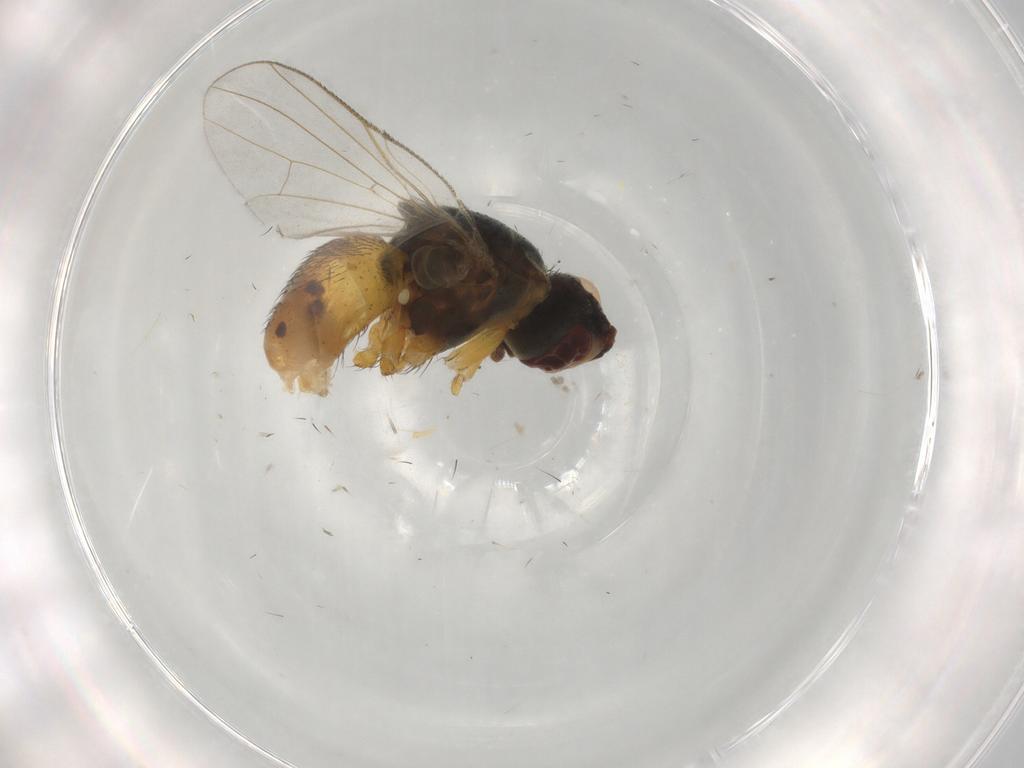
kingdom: Animalia
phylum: Arthropoda
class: Insecta
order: Diptera
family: Muscidae
